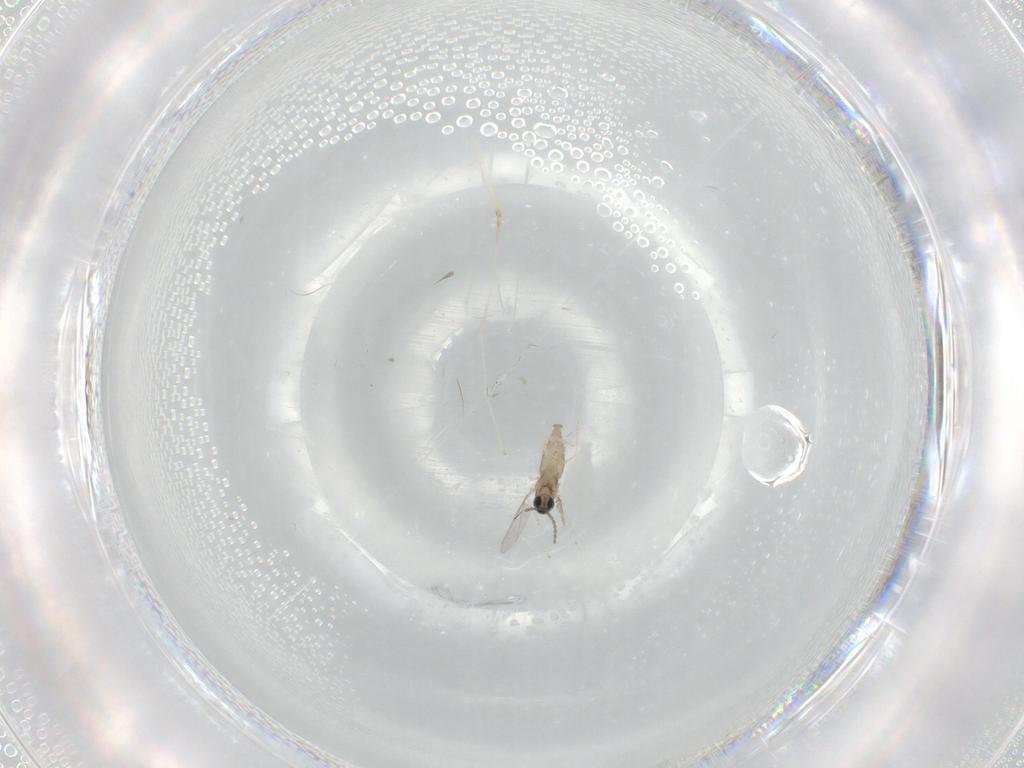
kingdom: Animalia
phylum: Arthropoda
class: Insecta
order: Diptera
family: Cecidomyiidae
